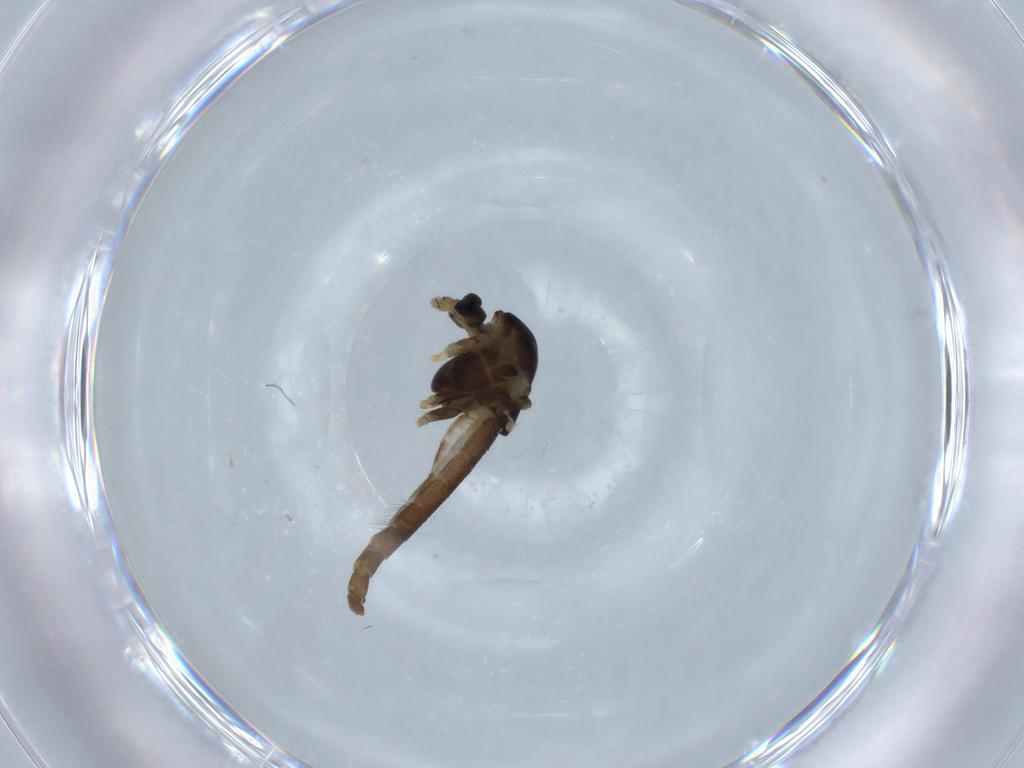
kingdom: Animalia
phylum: Arthropoda
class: Insecta
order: Diptera
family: Chironomidae
